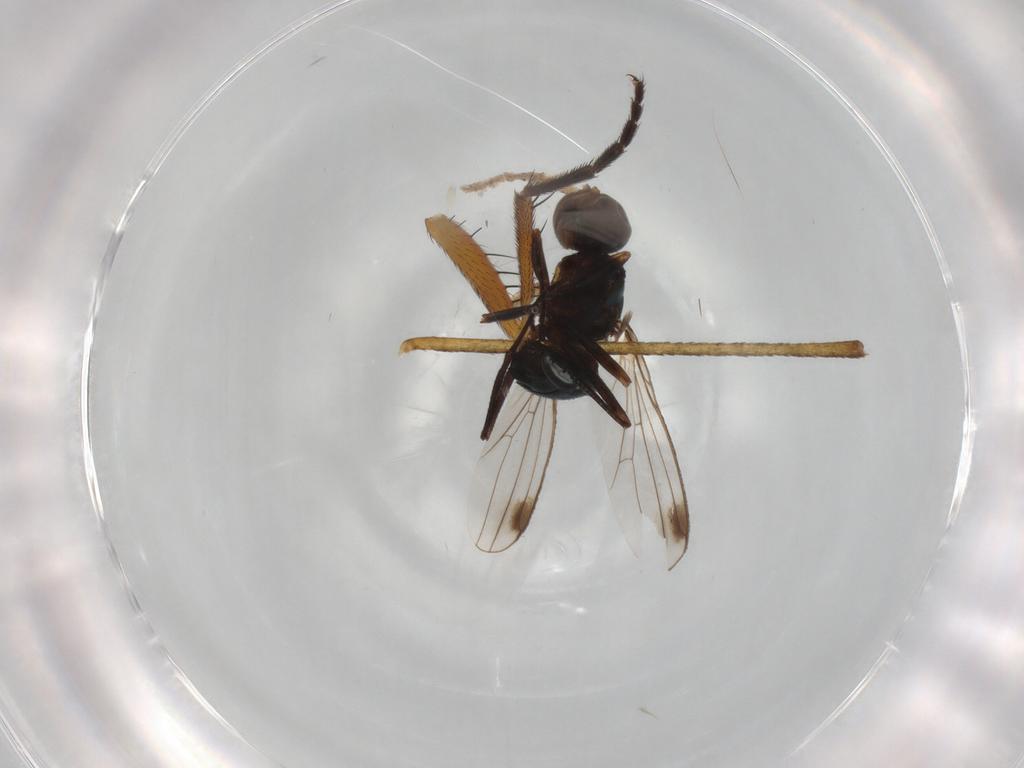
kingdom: Animalia
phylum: Arthropoda
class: Insecta
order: Diptera
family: Sepsidae
